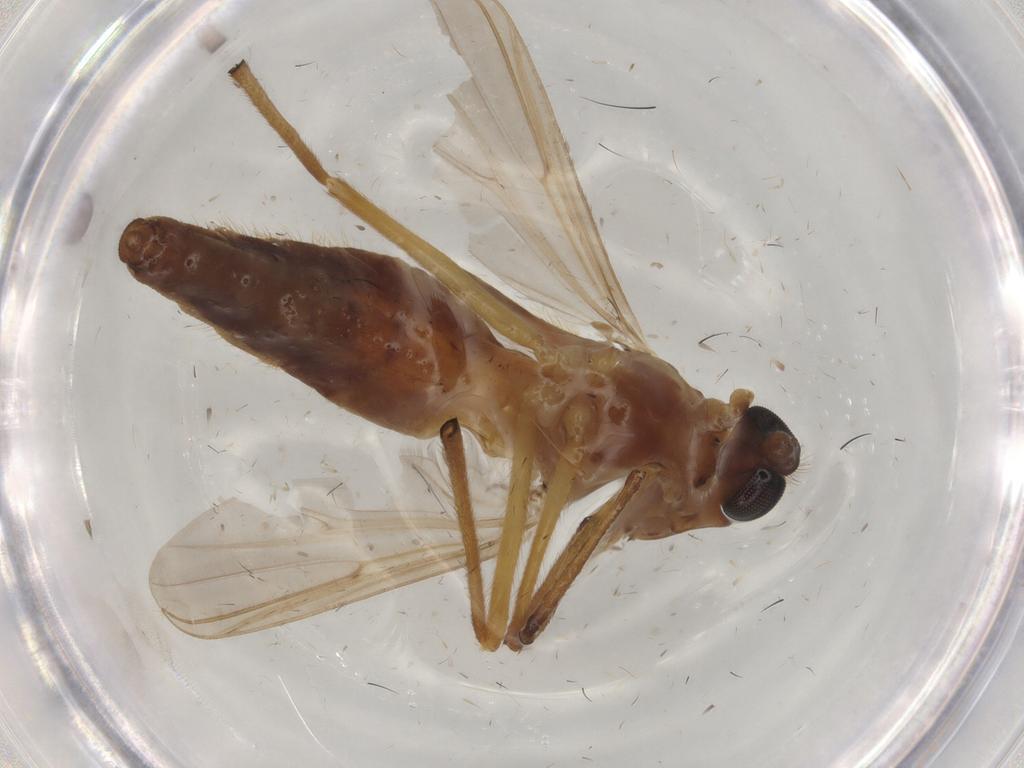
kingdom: Animalia
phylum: Arthropoda
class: Insecta
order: Diptera
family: Chironomidae
